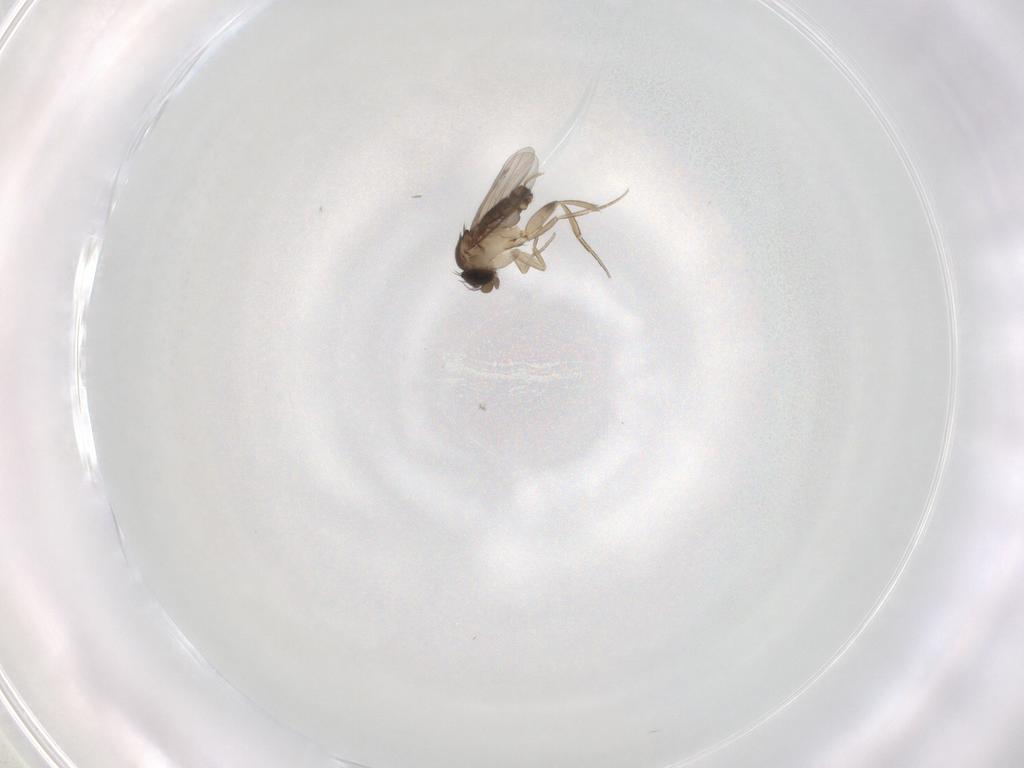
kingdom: Animalia
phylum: Arthropoda
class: Insecta
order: Diptera
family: Phoridae
